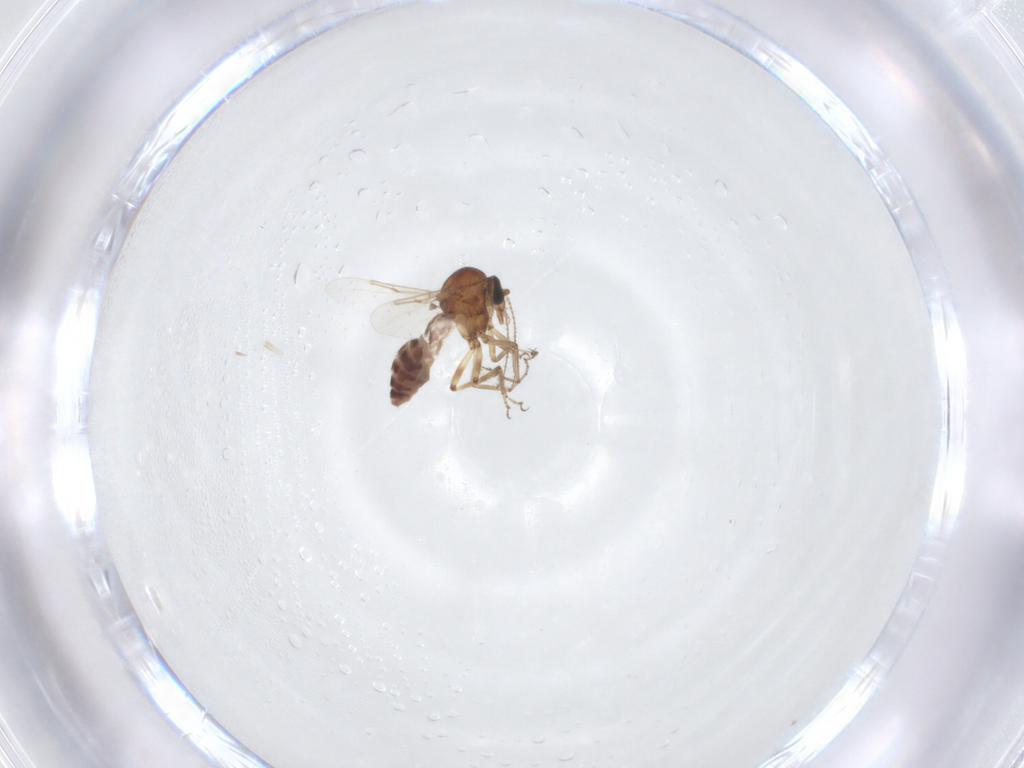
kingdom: Animalia
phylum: Arthropoda
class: Insecta
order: Diptera
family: Ceratopogonidae
